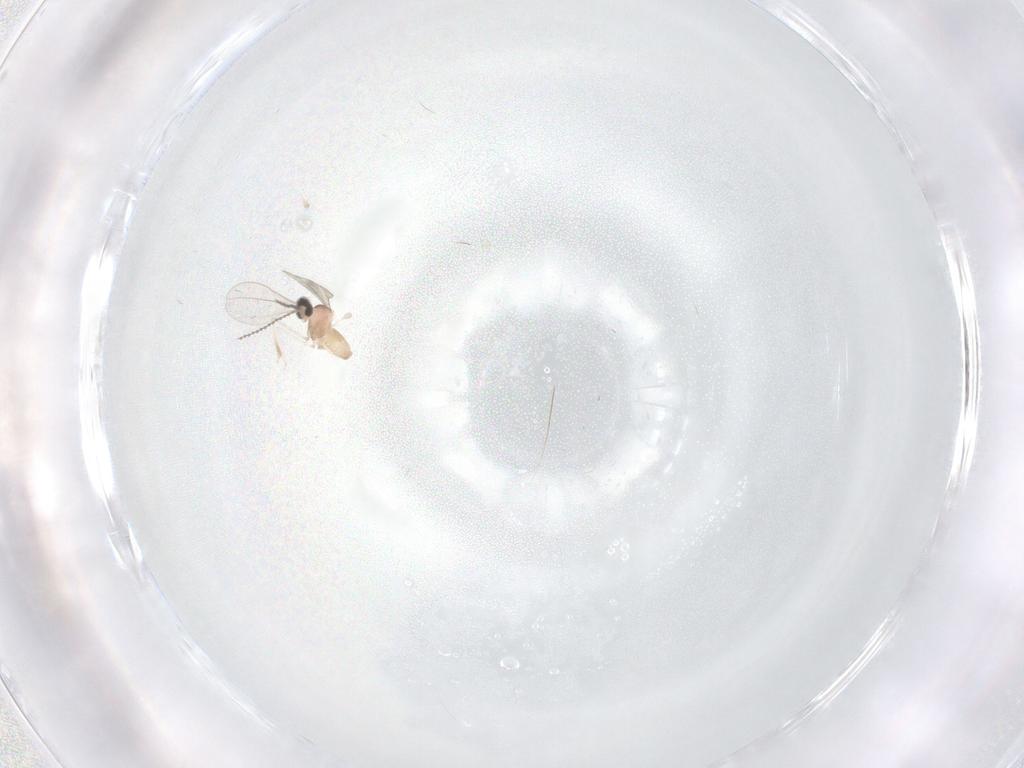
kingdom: Animalia
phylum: Arthropoda
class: Insecta
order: Diptera
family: Cecidomyiidae
